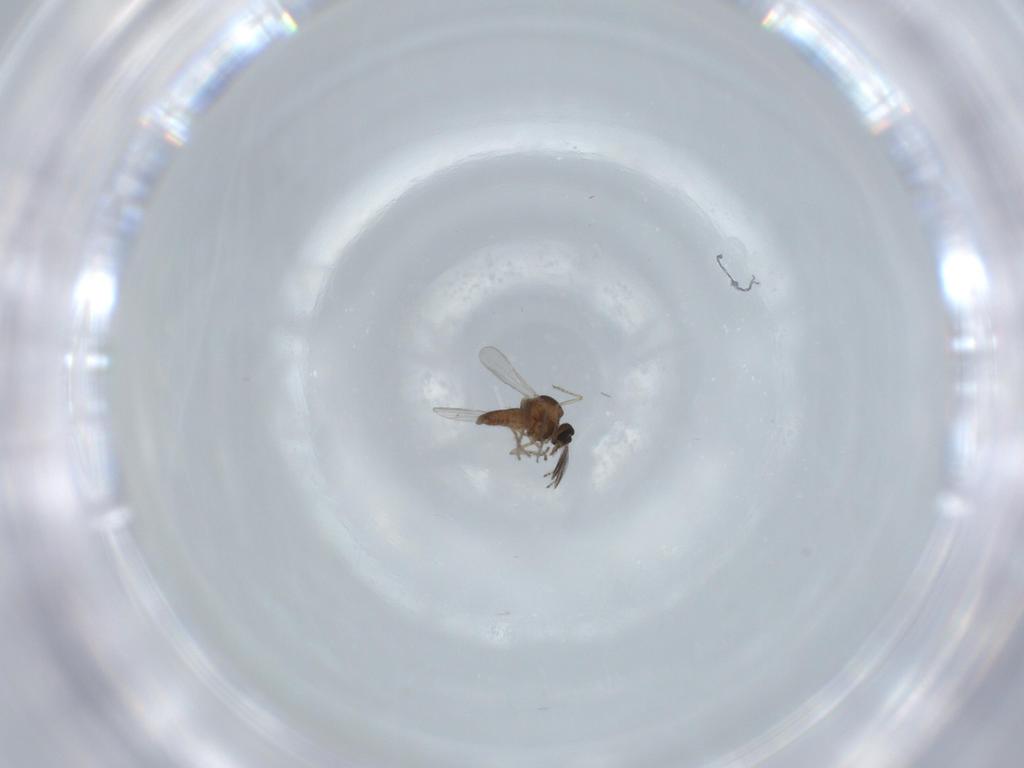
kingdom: Animalia
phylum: Arthropoda
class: Insecta
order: Diptera
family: Ceratopogonidae
